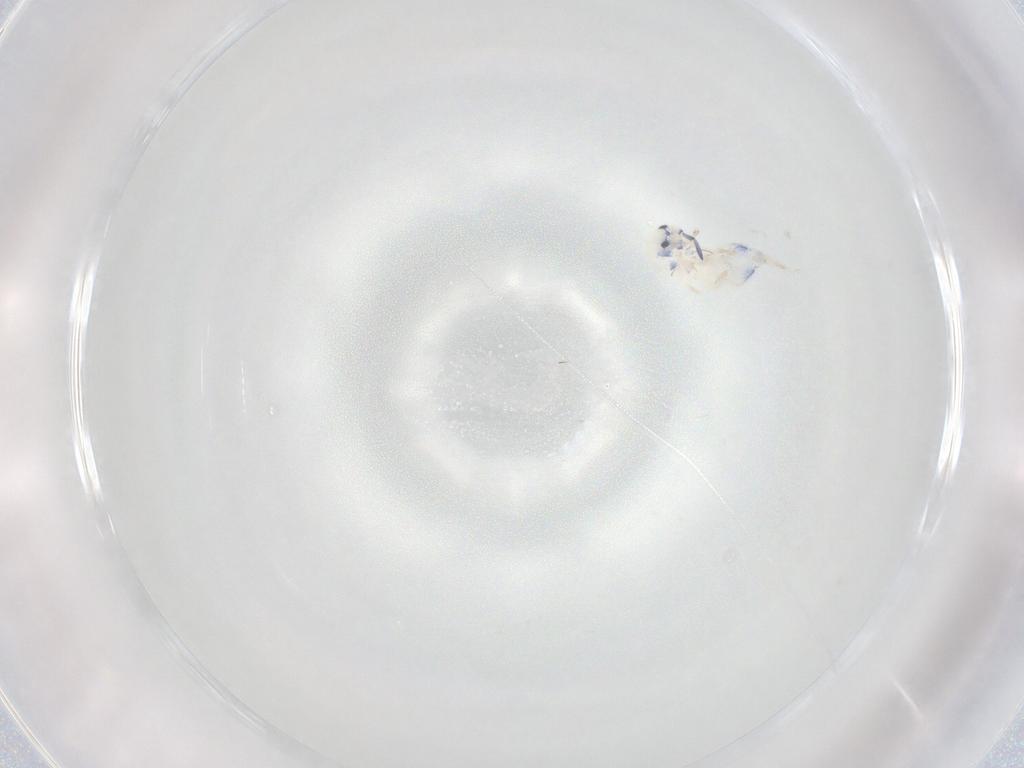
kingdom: Animalia
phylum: Arthropoda
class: Collembola
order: Entomobryomorpha
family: Entomobryidae
